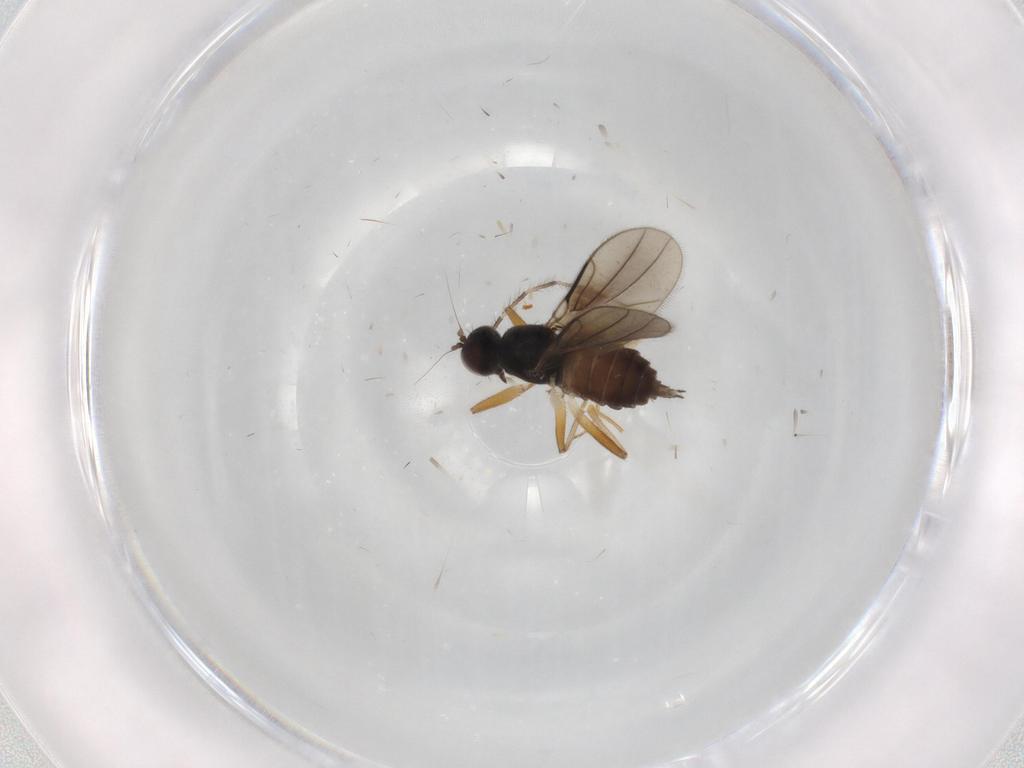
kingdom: Animalia
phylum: Arthropoda
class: Insecta
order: Diptera
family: Hybotidae
